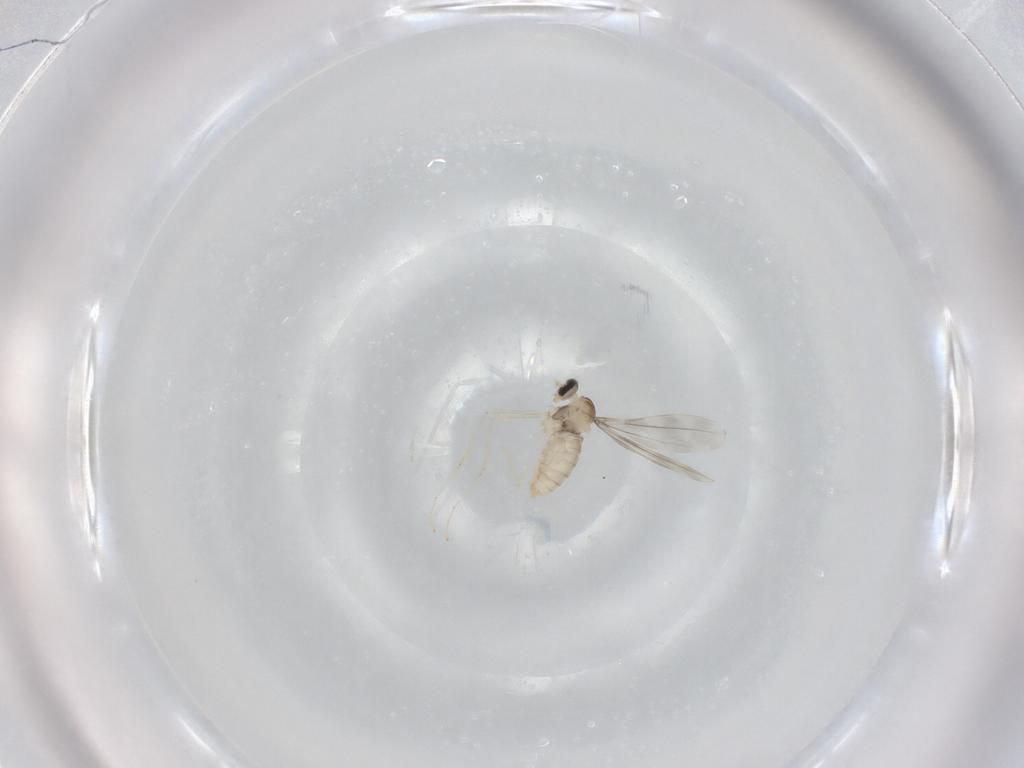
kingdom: Animalia
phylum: Arthropoda
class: Insecta
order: Diptera
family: Cecidomyiidae
